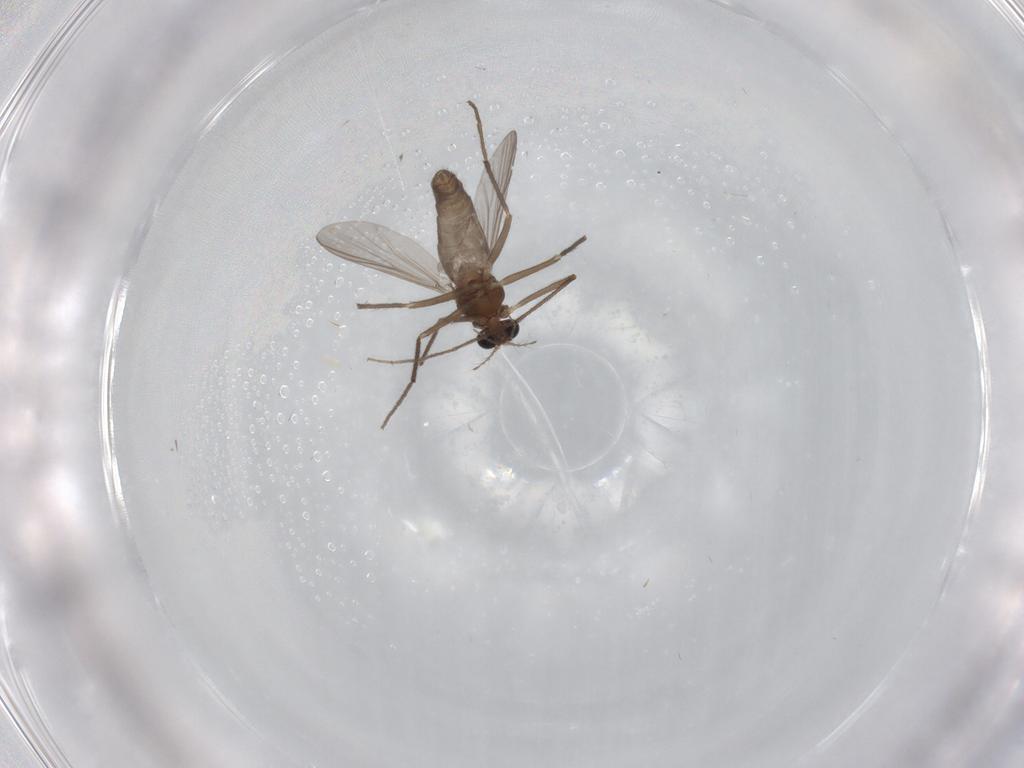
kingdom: Animalia
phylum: Arthropoda
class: Insecta
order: Diptera
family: Chironomidae
